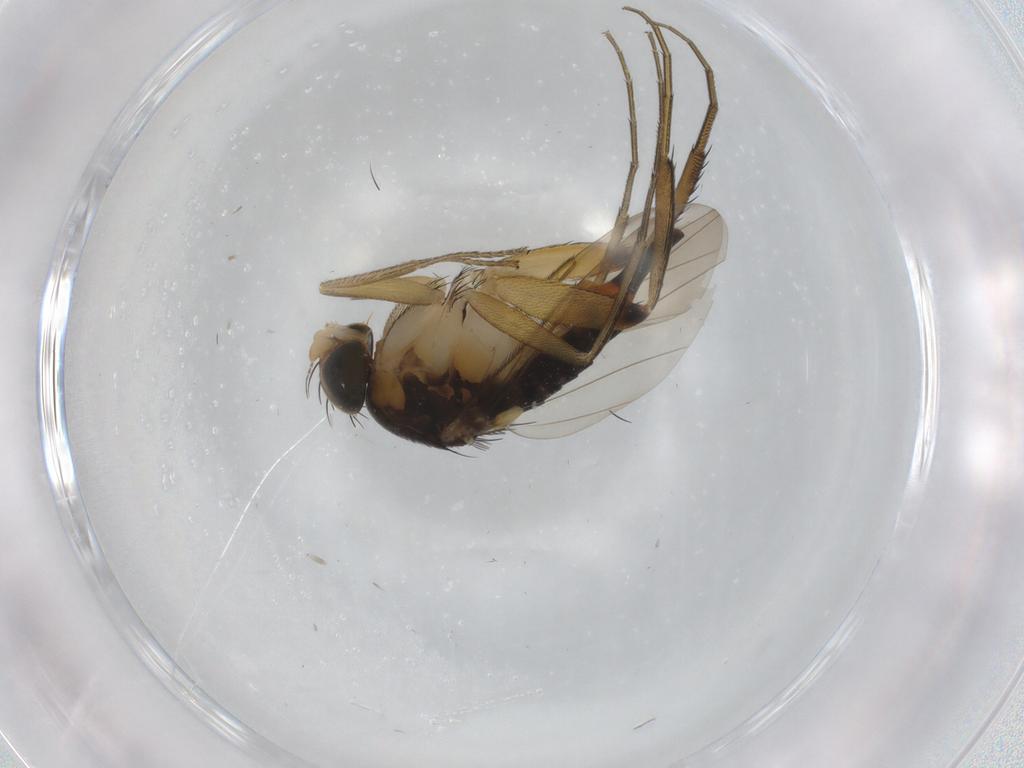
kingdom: Animalia
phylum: Arthropoda
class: Insecta
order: Diptera
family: Phoridae
